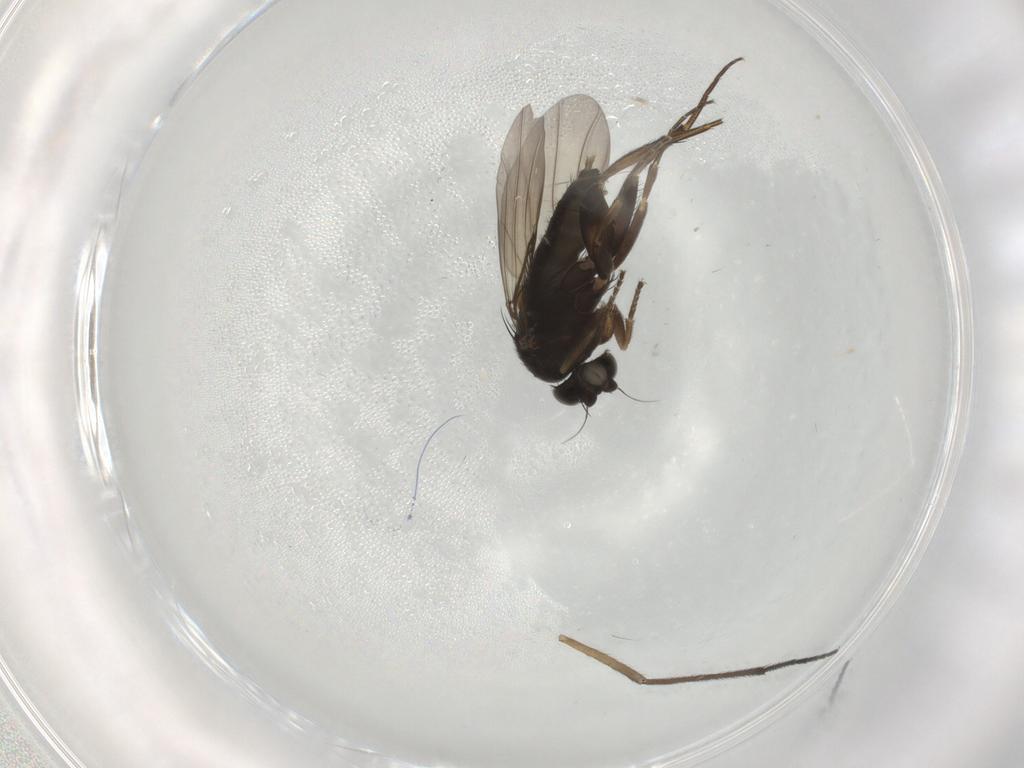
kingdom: Animalia
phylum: Arthropoda
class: Insecta
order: Diptera
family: Phoridae
